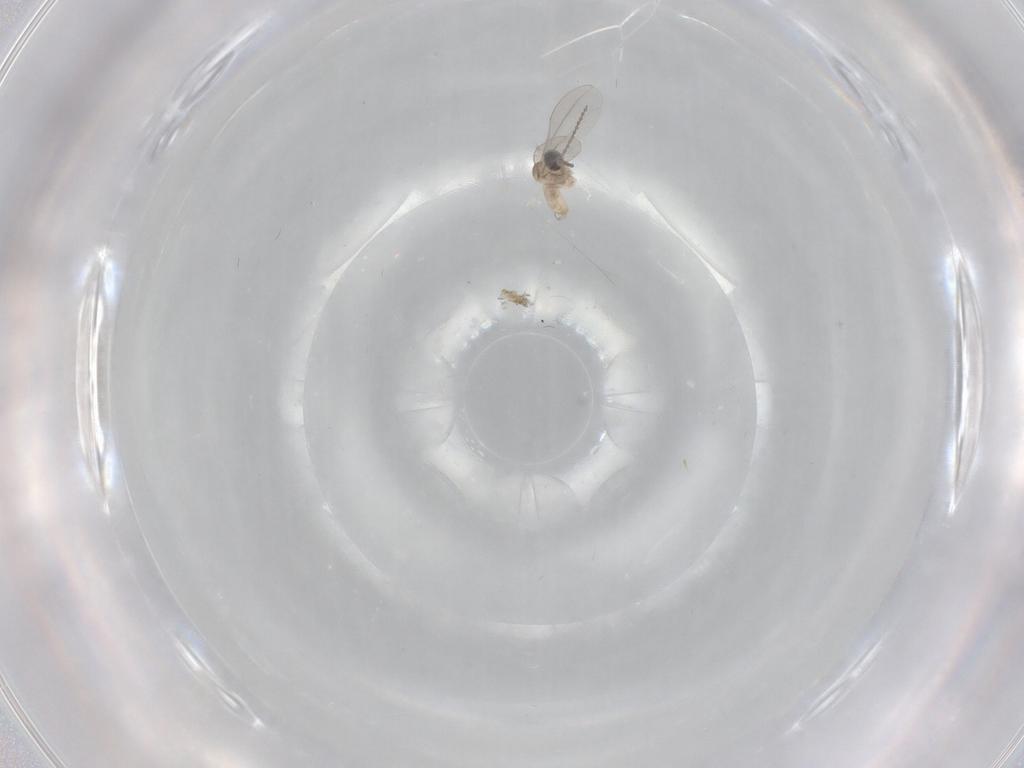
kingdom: Animalia
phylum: Arthropoda
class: Insecta
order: Diptera
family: Cecidomyiidae
